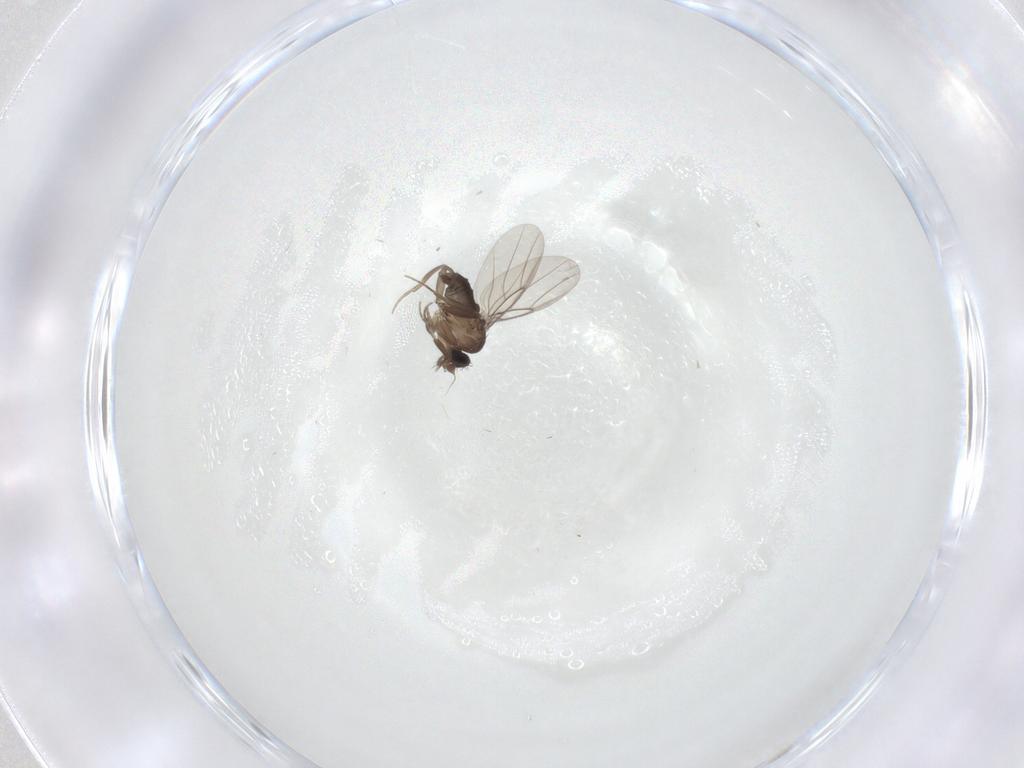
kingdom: Animalia
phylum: Arthropoda
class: Insecta
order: Diptera
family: Phoridae
